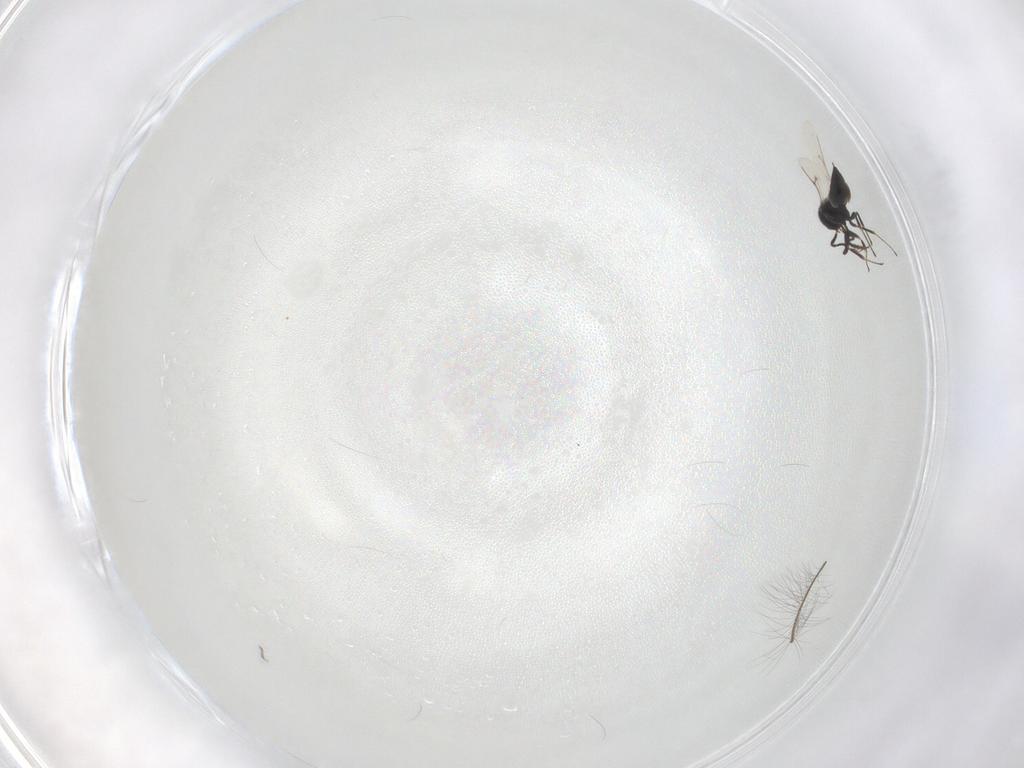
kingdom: Animalia
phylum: Arthropoda
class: Insecta
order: Hymenoptera
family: Scelionidae
